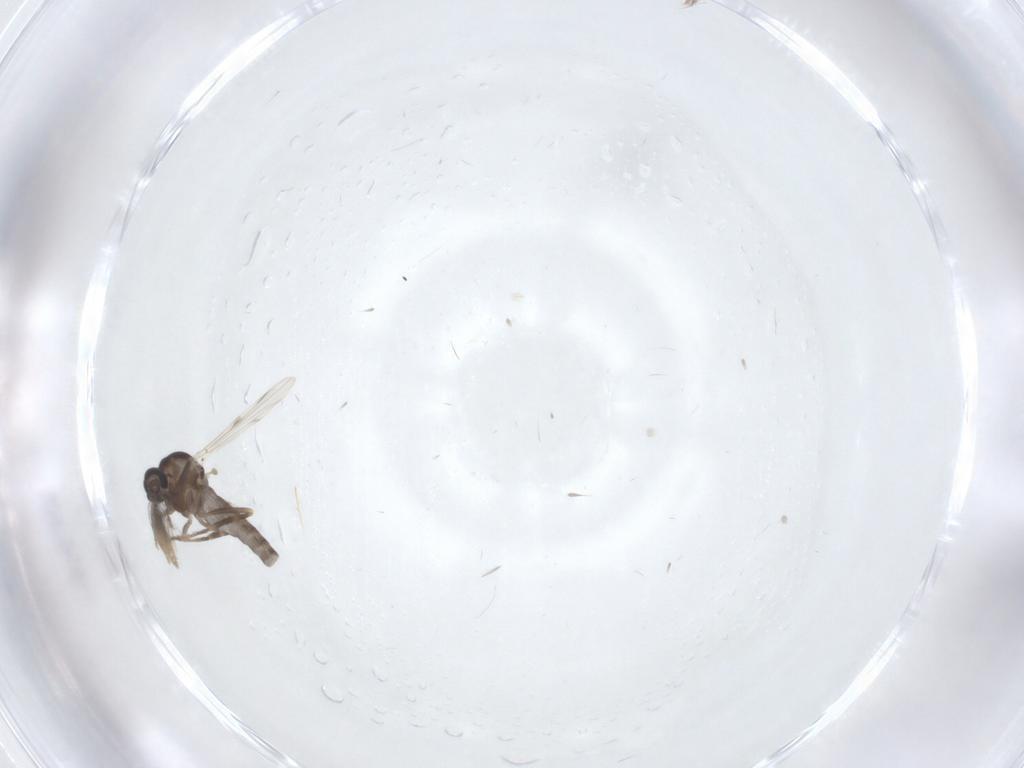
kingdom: Animalia
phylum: Arthropoda
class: Insecta
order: Diptera
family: Ceratopogonidae
